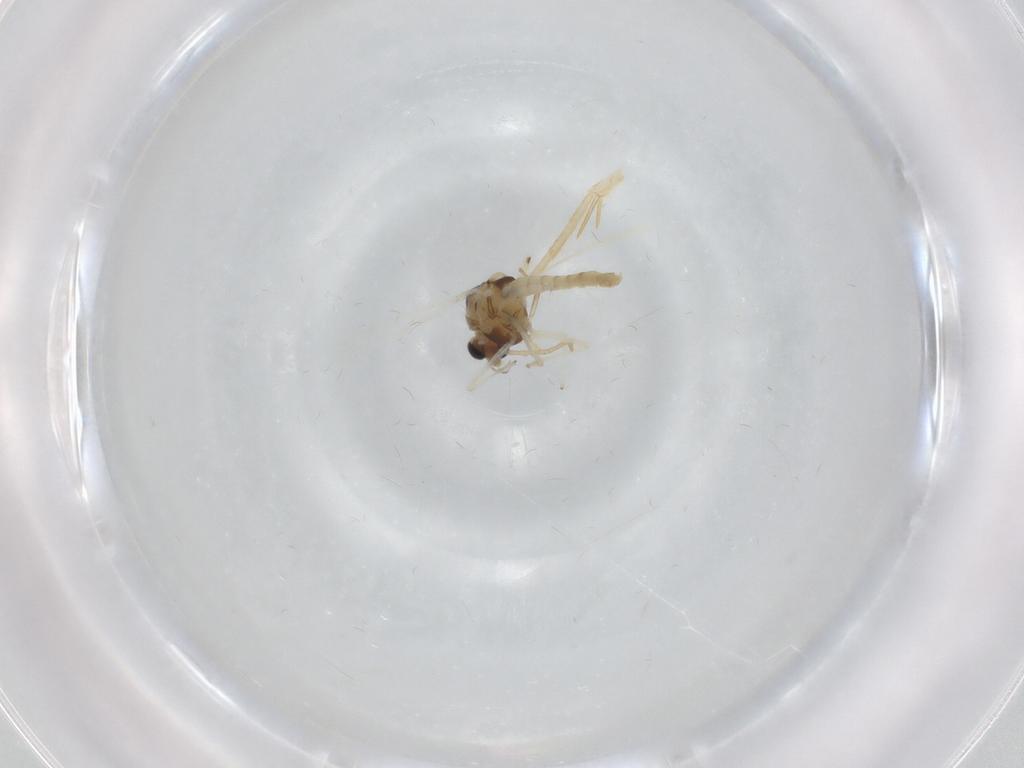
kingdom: Animalia
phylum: Arthropoda
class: Insecta
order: Diptera
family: Chironomidae
